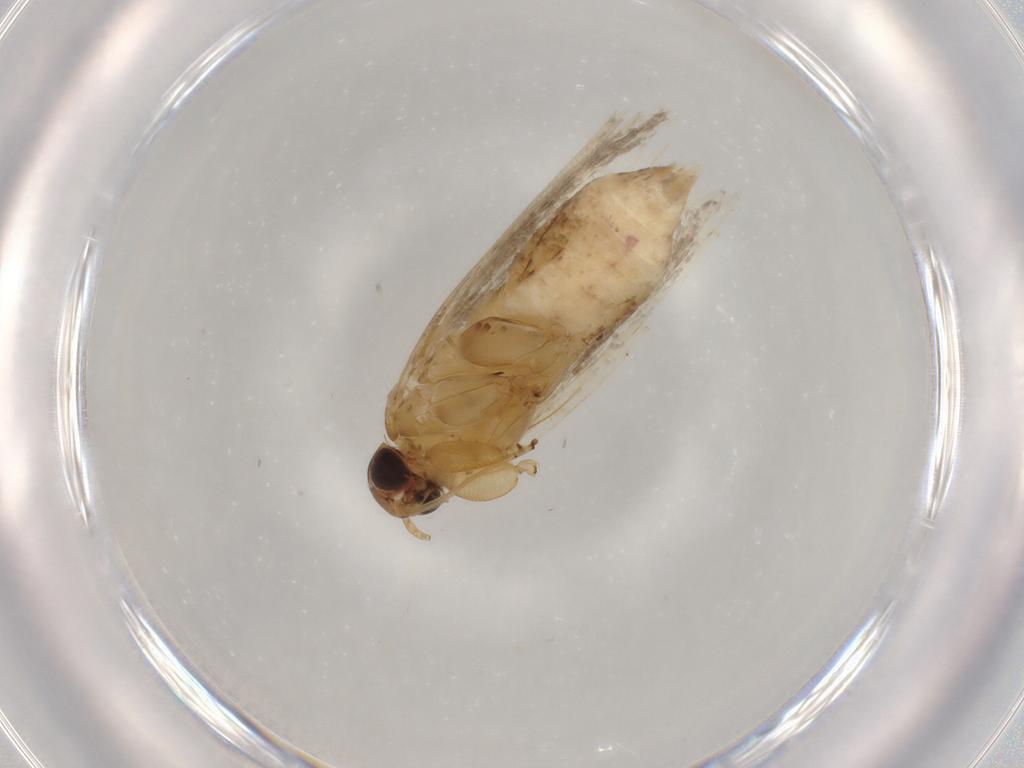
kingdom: Animalia
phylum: Arthropoda
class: Insecta
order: Lepidoptera
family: Gelechiidae
